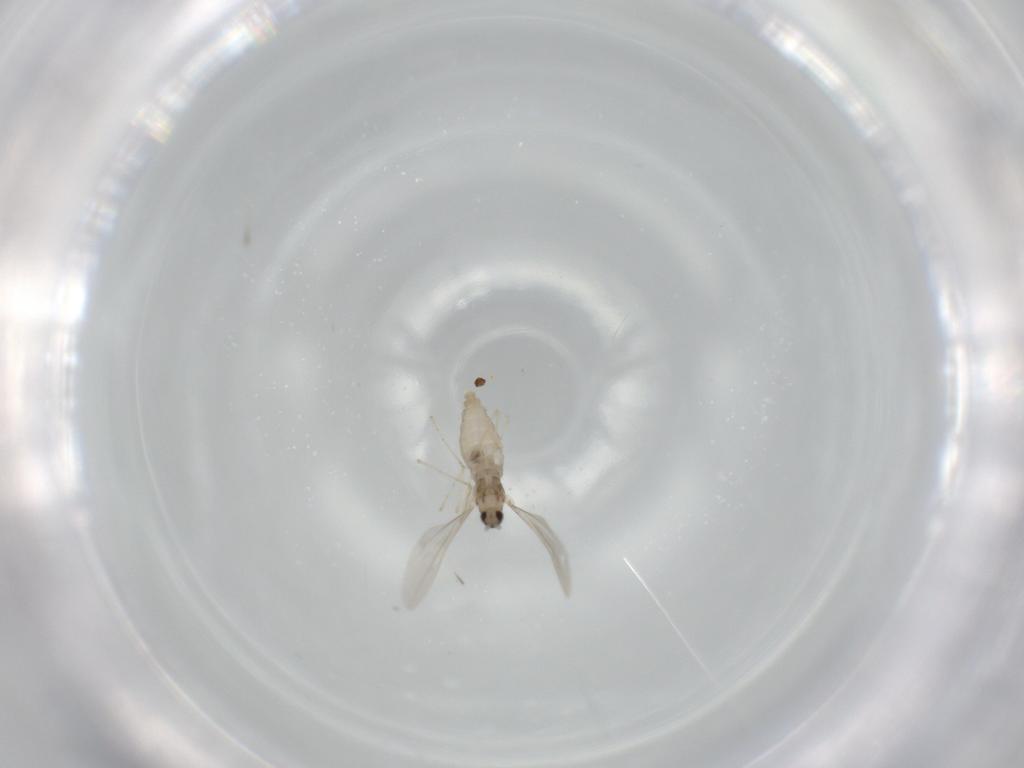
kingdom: Animalia
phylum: Arthropoda
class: Insecta
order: Diptera
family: Cecidomyiidae
